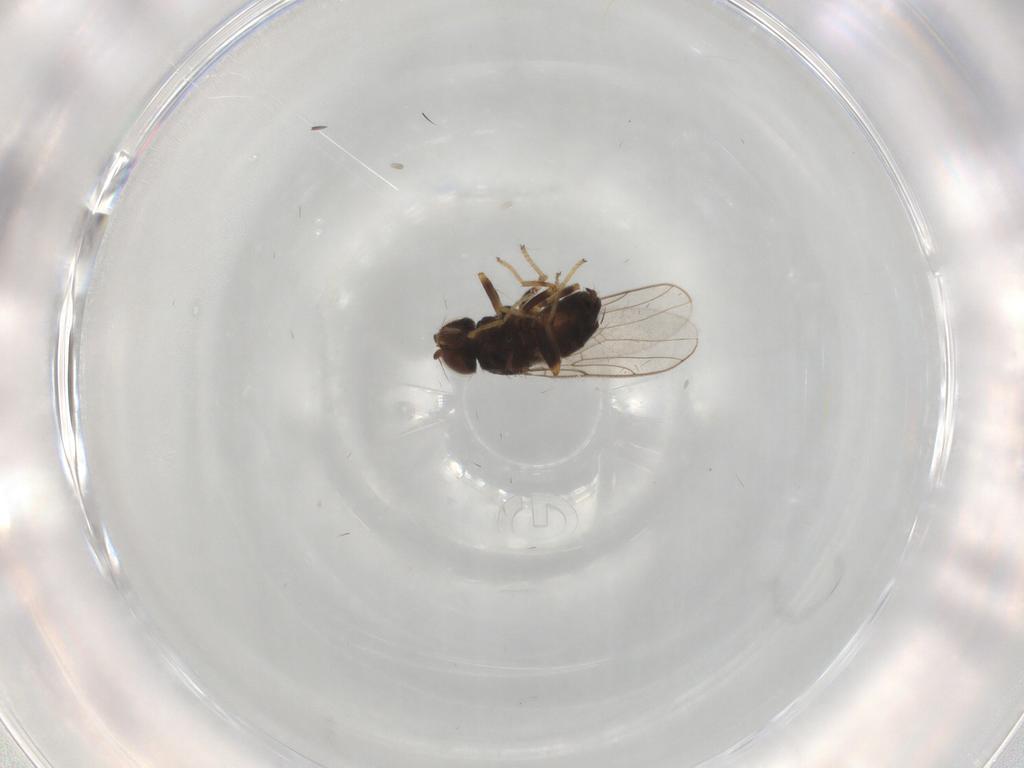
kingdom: Animalia
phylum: Arthropoda
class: Insecta
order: Diptera
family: Chloropidae
